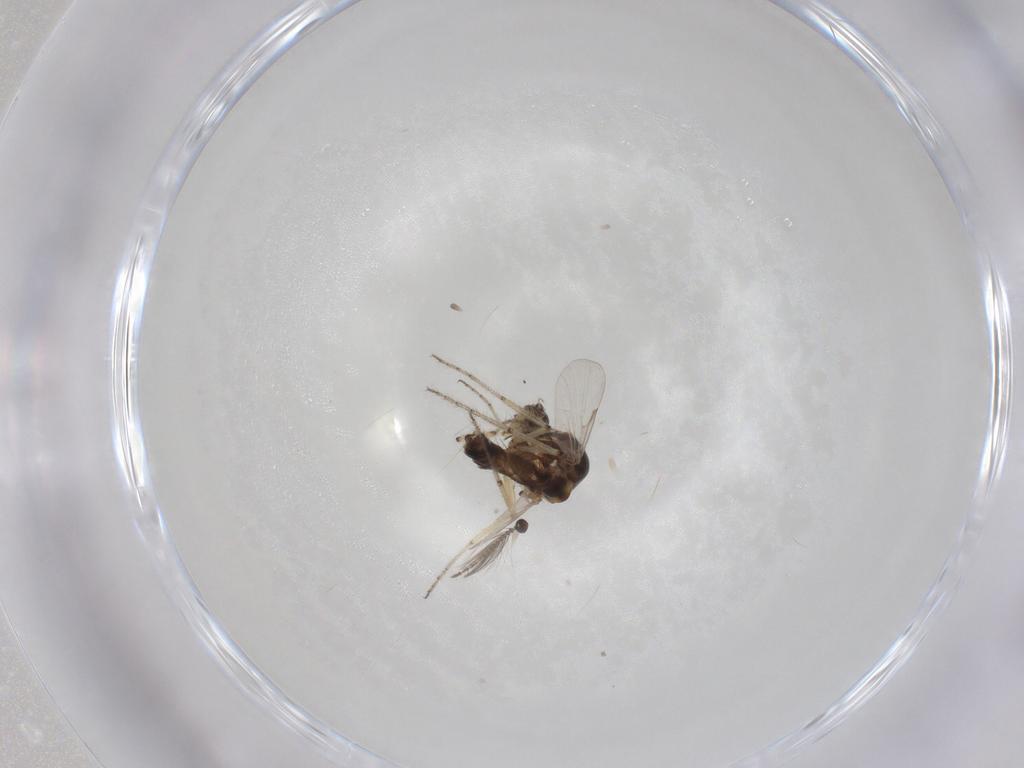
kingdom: Animalia
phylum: Arthropoda
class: Insecta
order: Diptera
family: Ceratopogonidae
